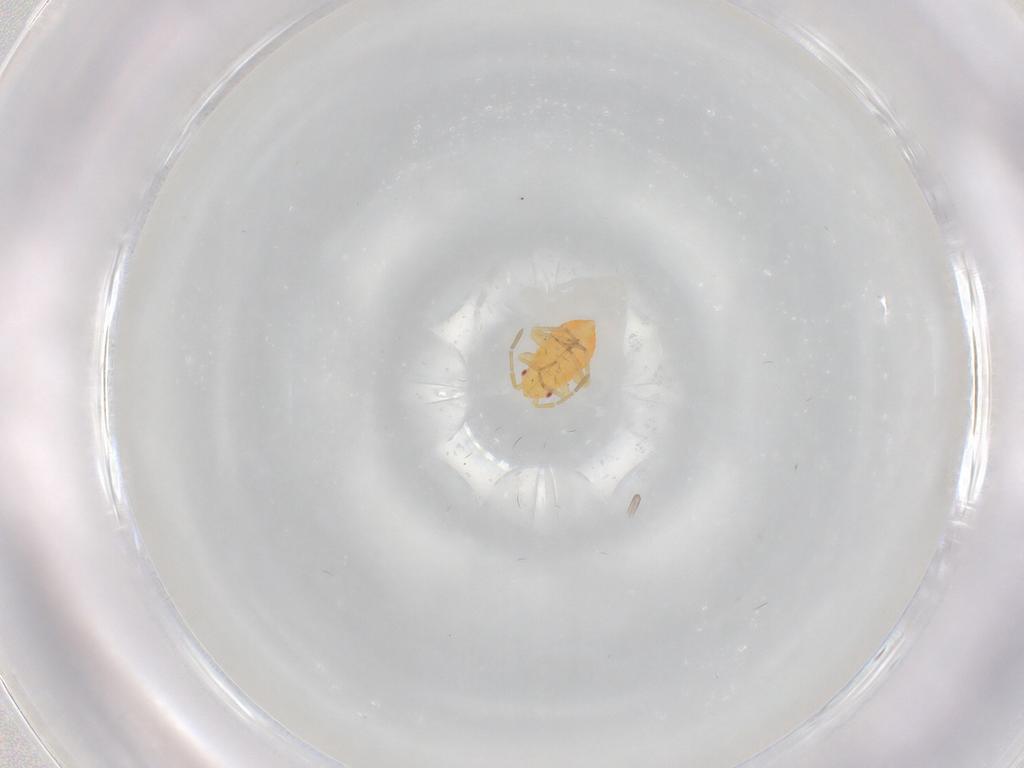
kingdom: Animalia
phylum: Arthropoda
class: Insecta
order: Hemiptera
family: Miridae
